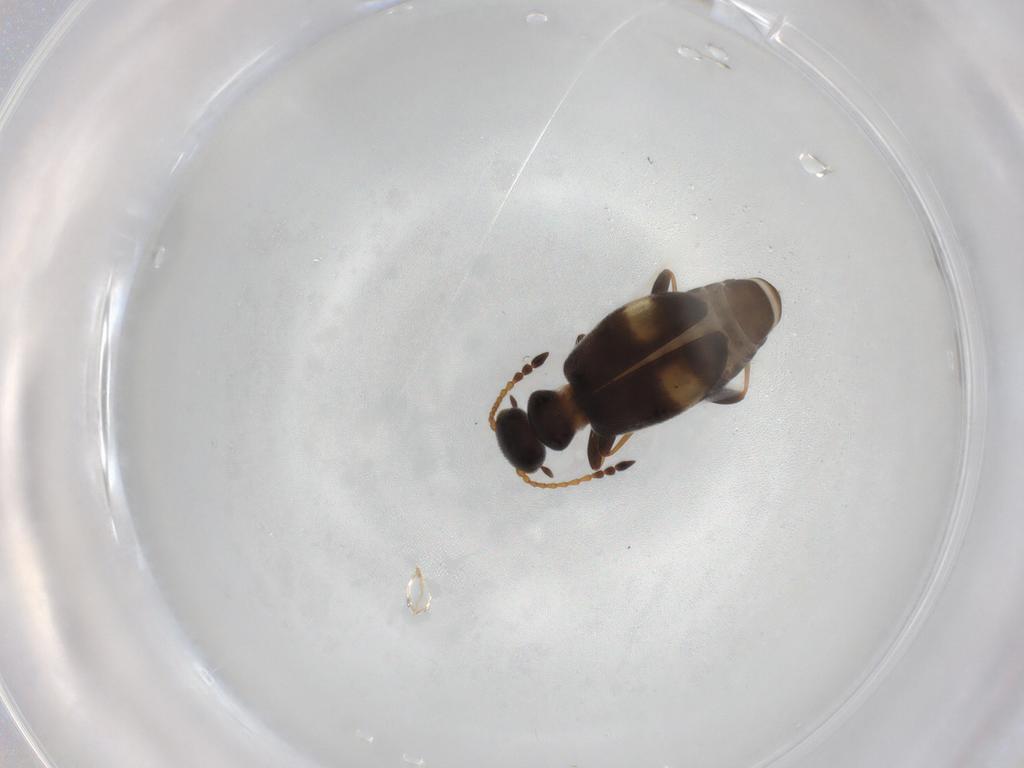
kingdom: Animalia
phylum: Arthropoda
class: Insecta
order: Coleoptera
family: Anthicidae
